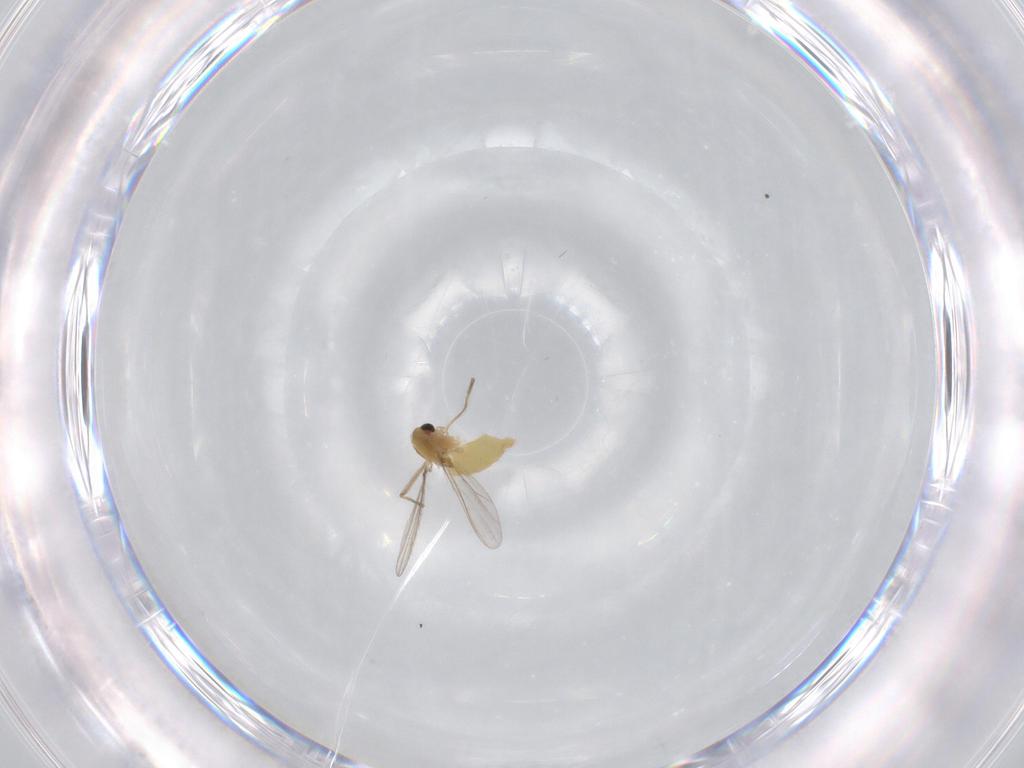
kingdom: Animalia
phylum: Arthropoda
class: Insecta
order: Diptera
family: Chironomidae
